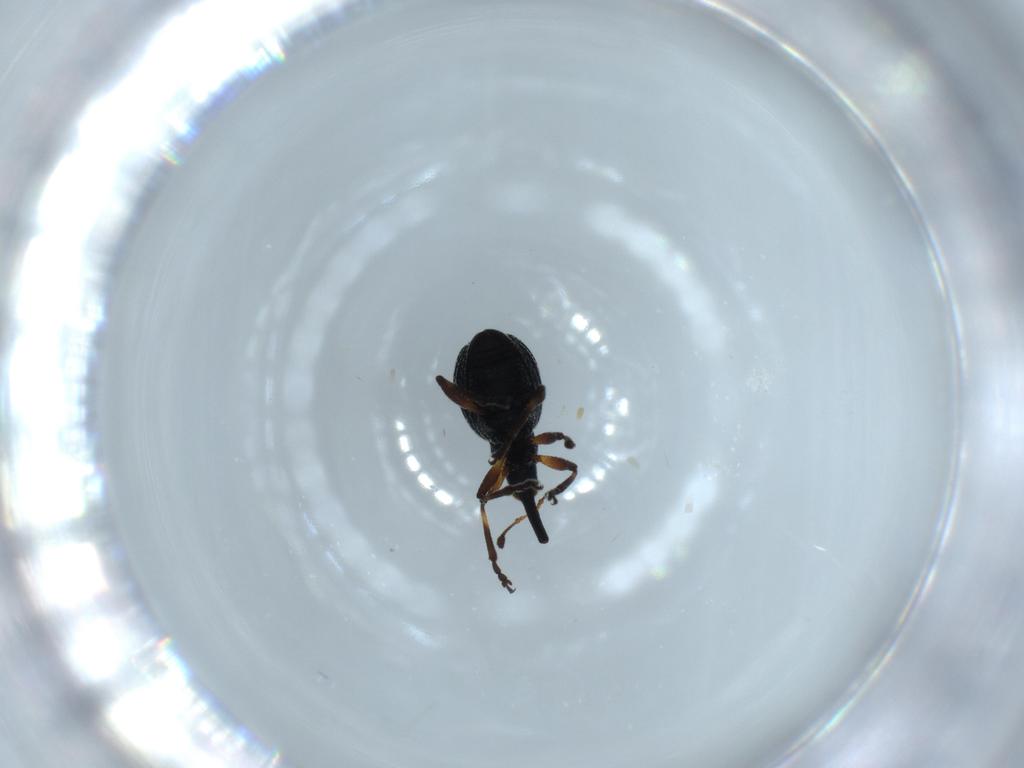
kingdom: Animalia
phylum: Arthropoda
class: Insecta
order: Coleoptera
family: Brentidae
